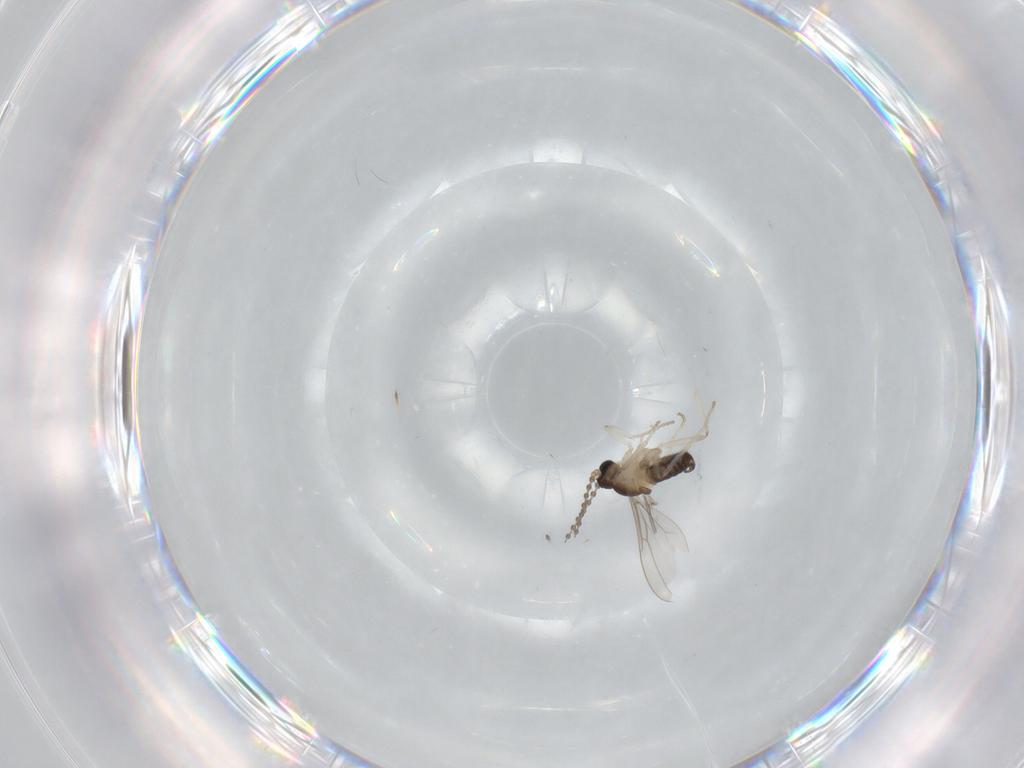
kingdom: Animalia
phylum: Arthropoda
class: Insecta
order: Diptera
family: Cecidomyiidae
